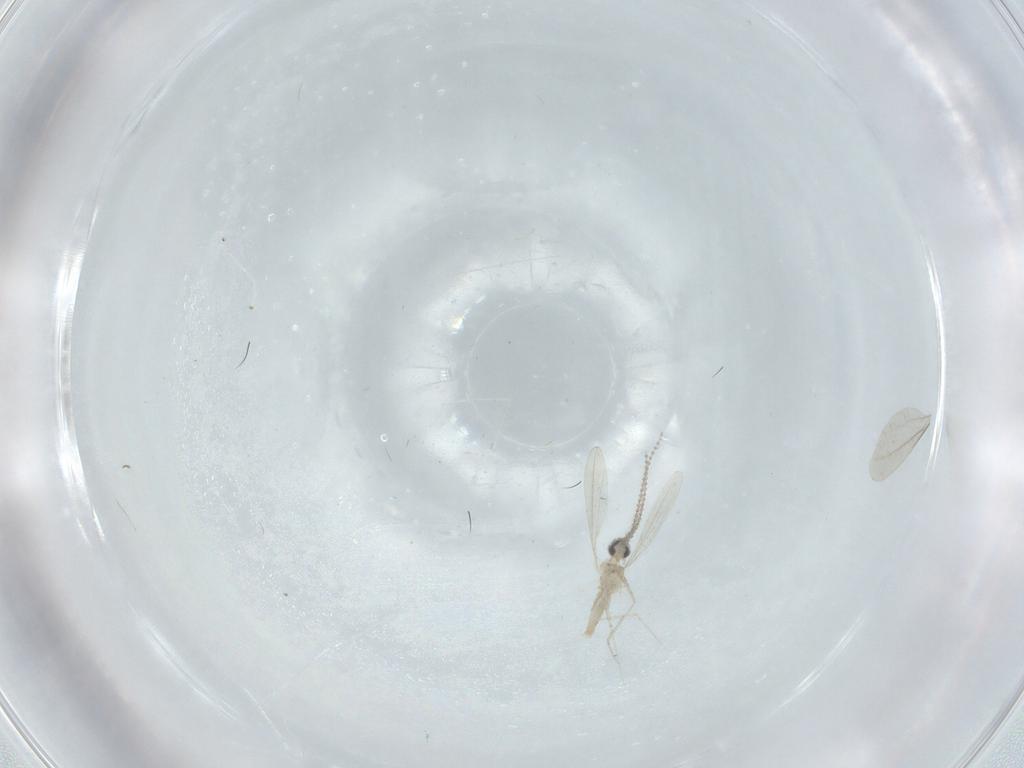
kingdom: Animalia
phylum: Arthropoda
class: Insecta
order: Diptera
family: Cecidomyiidae
